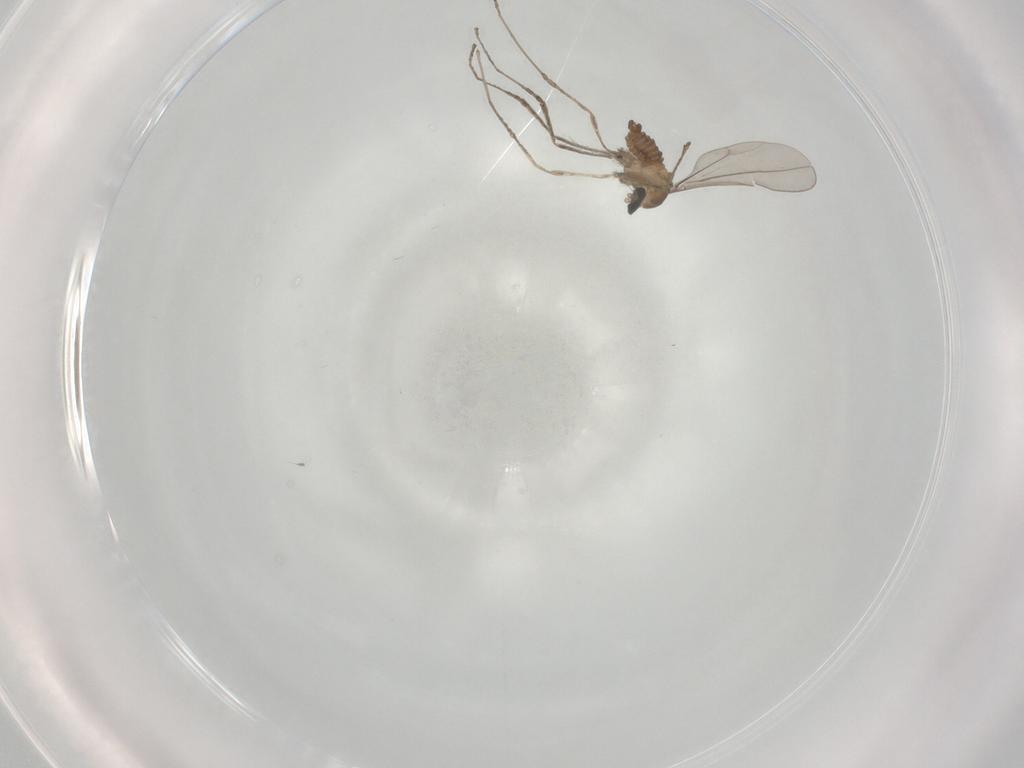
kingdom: Animalia
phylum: Arthropoda
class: Insecta
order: Diptera
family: Cecidomyiidae
